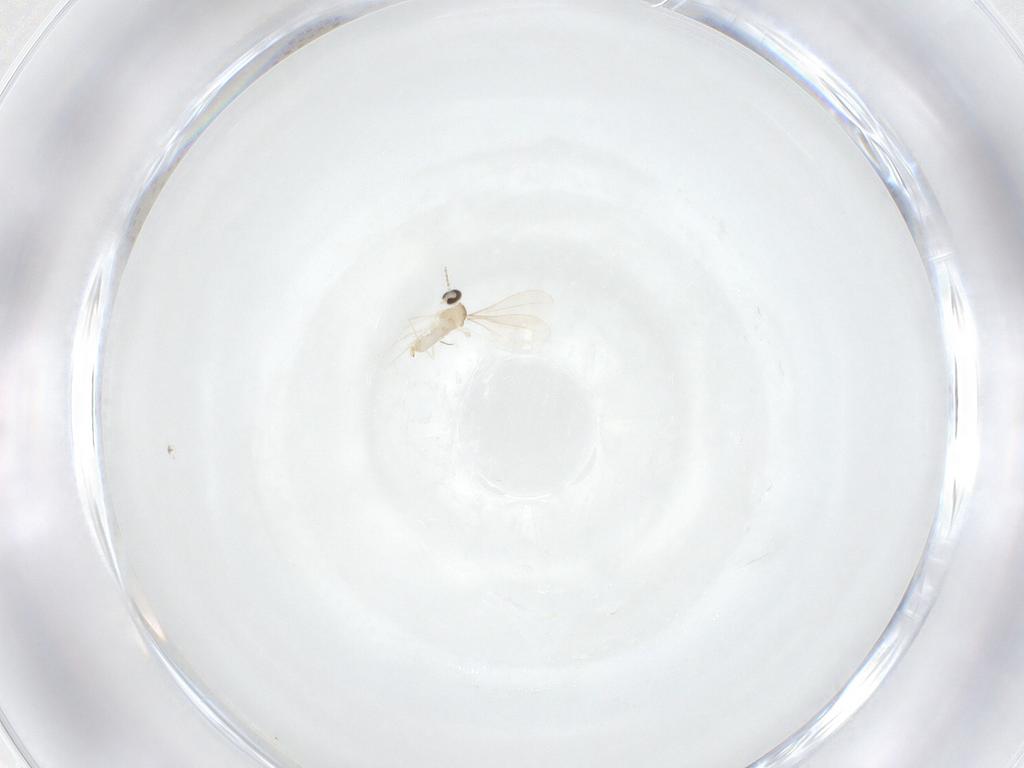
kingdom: Animalia
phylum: Arthropoda
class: Insecta
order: Diptera
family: Cecidomyiidae
